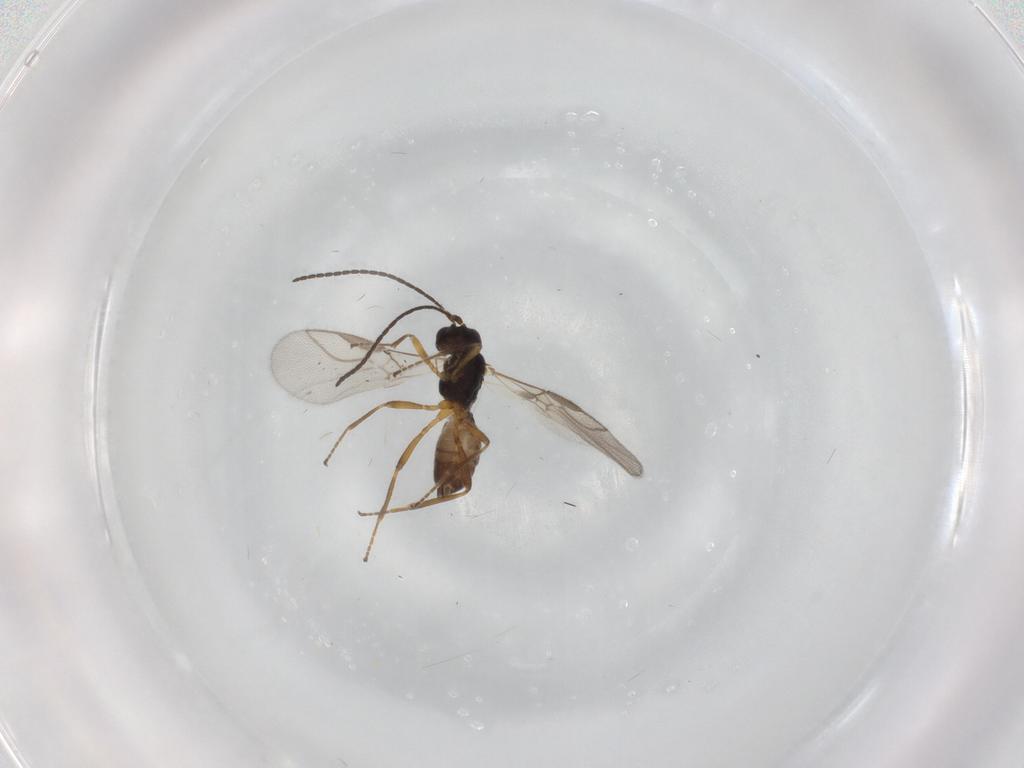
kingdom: Animalia
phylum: Arthropoda
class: Insecta
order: Hymenoptera
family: Braconidae
